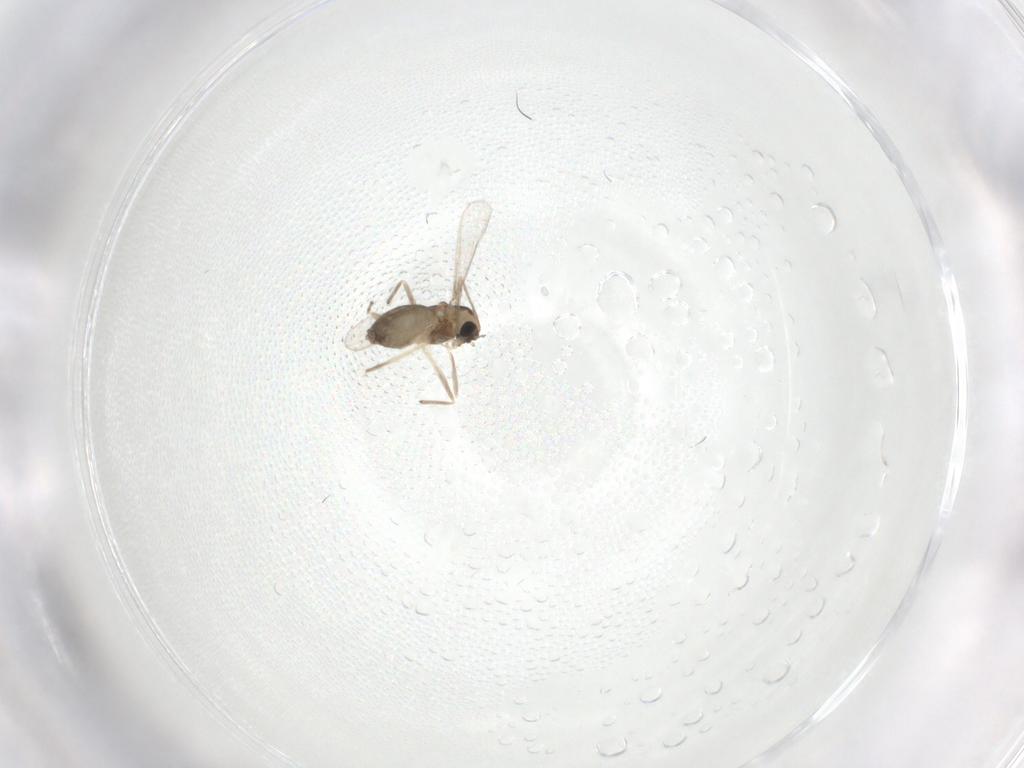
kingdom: Animalia
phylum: Arthropoda
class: Insecta
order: Diptera
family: Chironomidae
